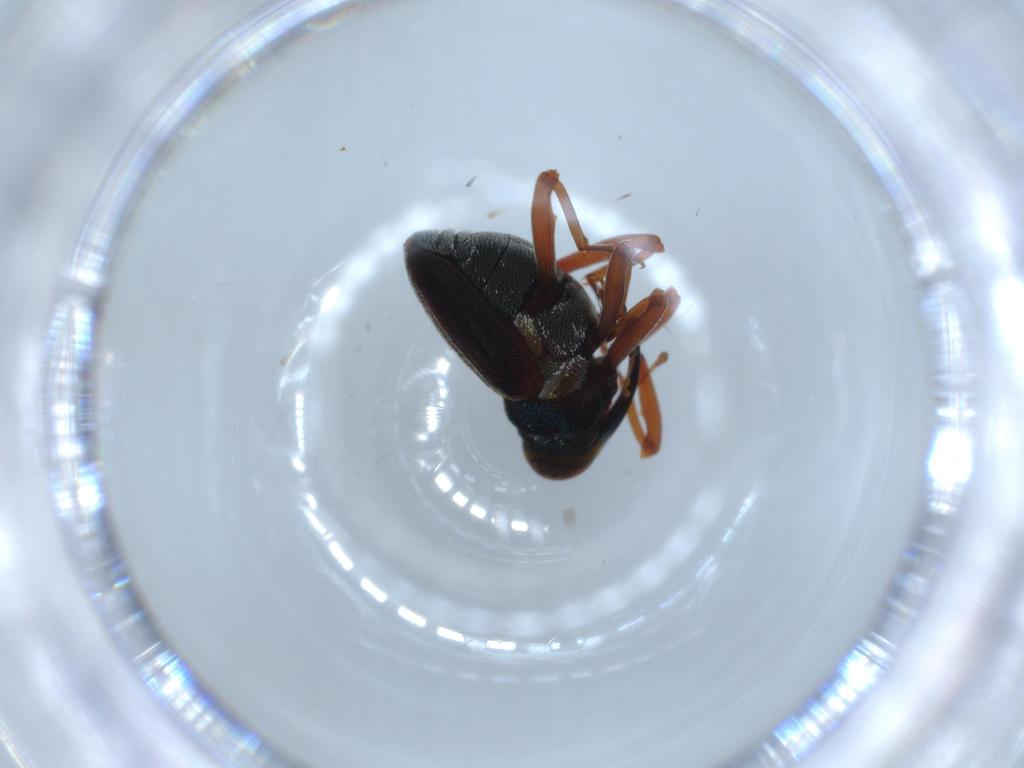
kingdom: Animalia
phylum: Arthropoda
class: Insecta
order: Coleoptera
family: Curculionidae
